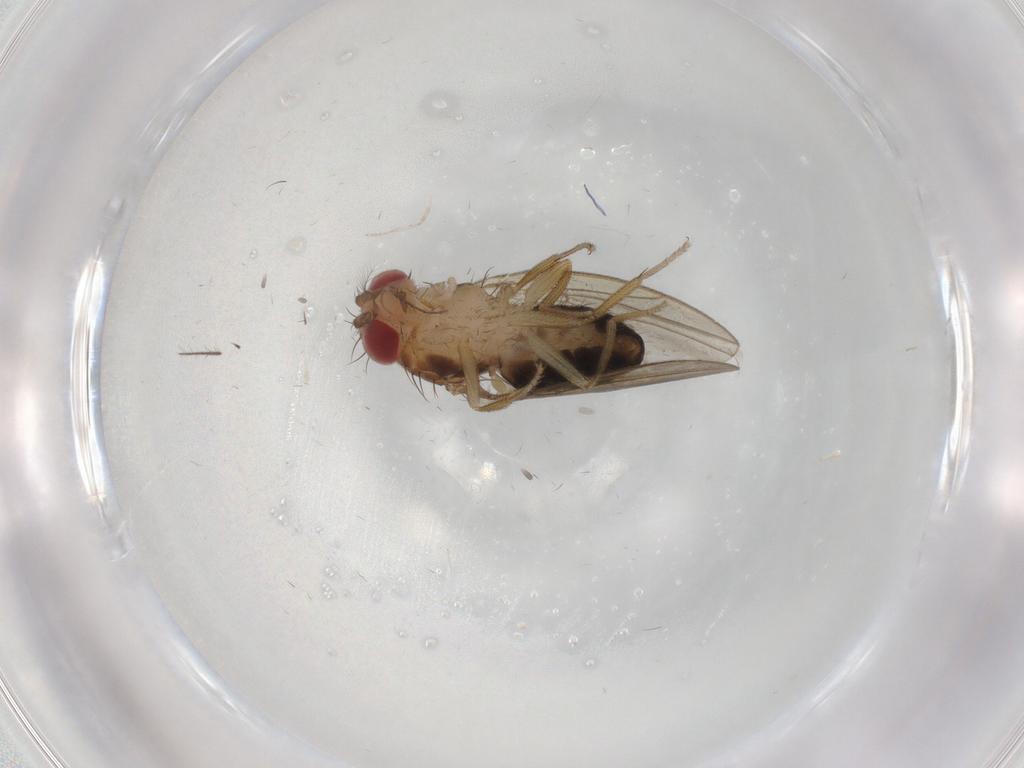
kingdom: Animalia
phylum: Arthropoda
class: Insecta
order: Diptera
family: Drosophilidae
